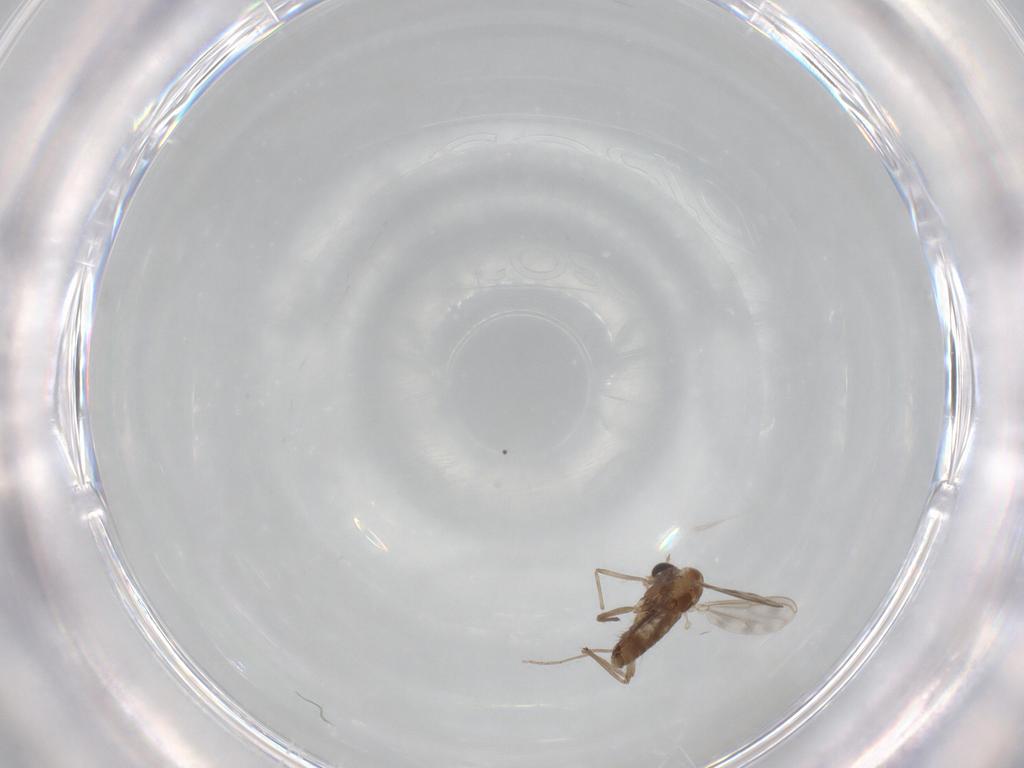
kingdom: Animalia
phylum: Arthropoda
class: Insecta
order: Diptera
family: Chironomidae
